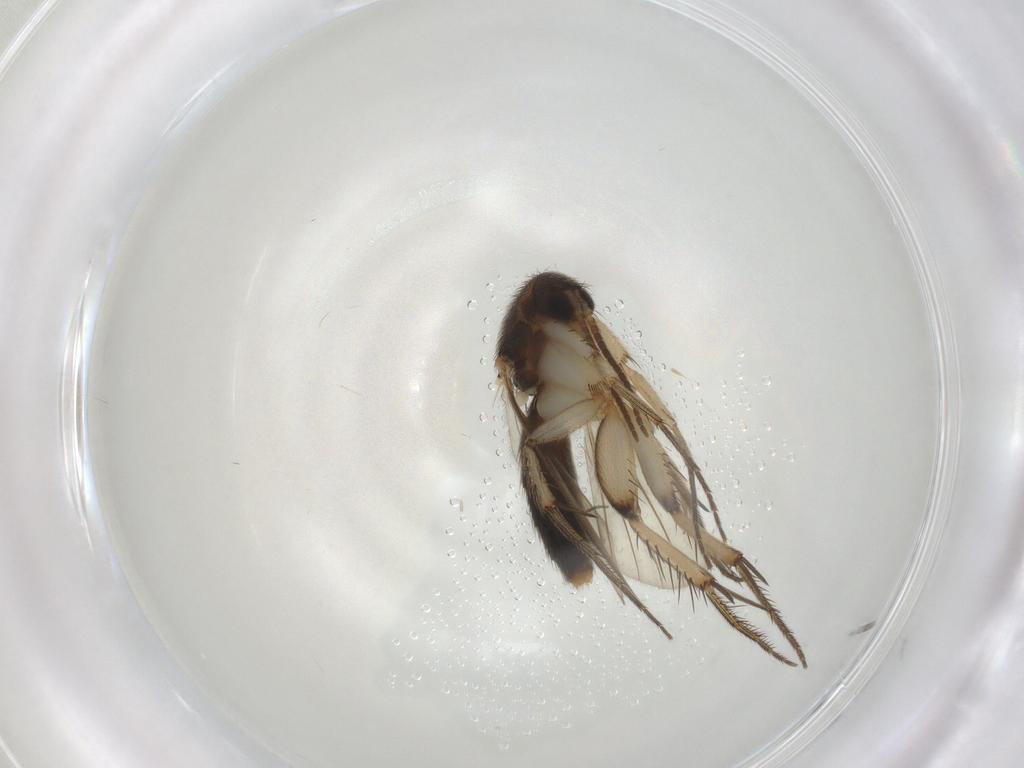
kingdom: Animalia
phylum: Arthropoda
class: Insecta
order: Diptera
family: Mycetophilidae
